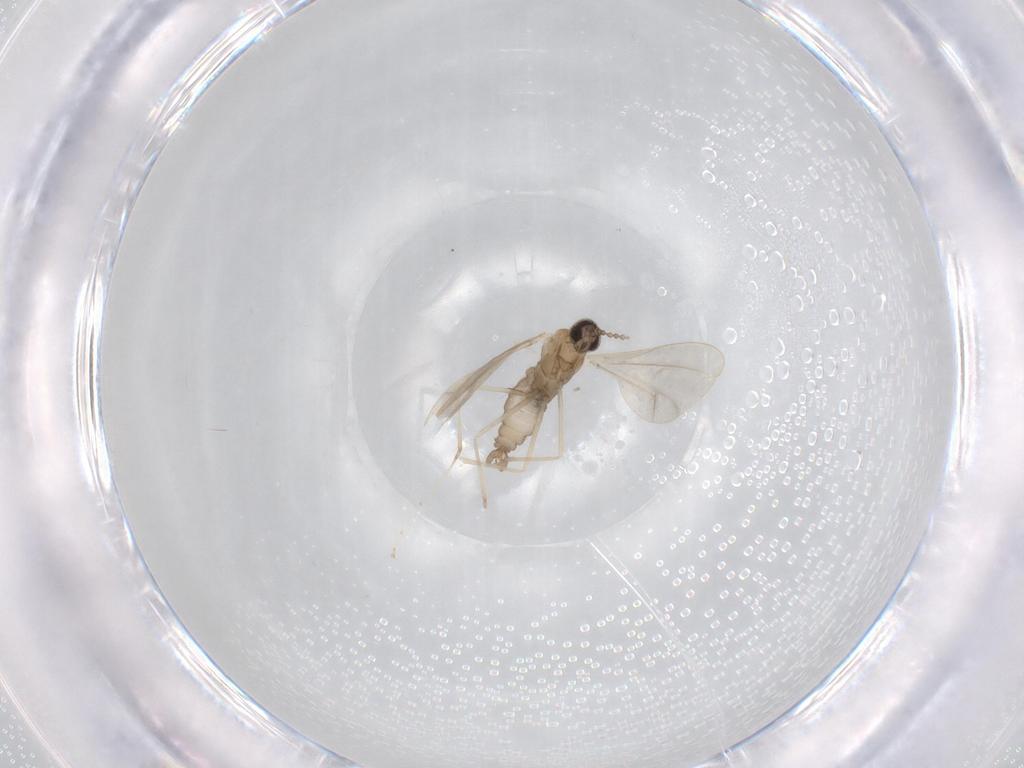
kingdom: Animalia
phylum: Arthropoda
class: Insecta
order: Diptera
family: Cecidomyiidae
